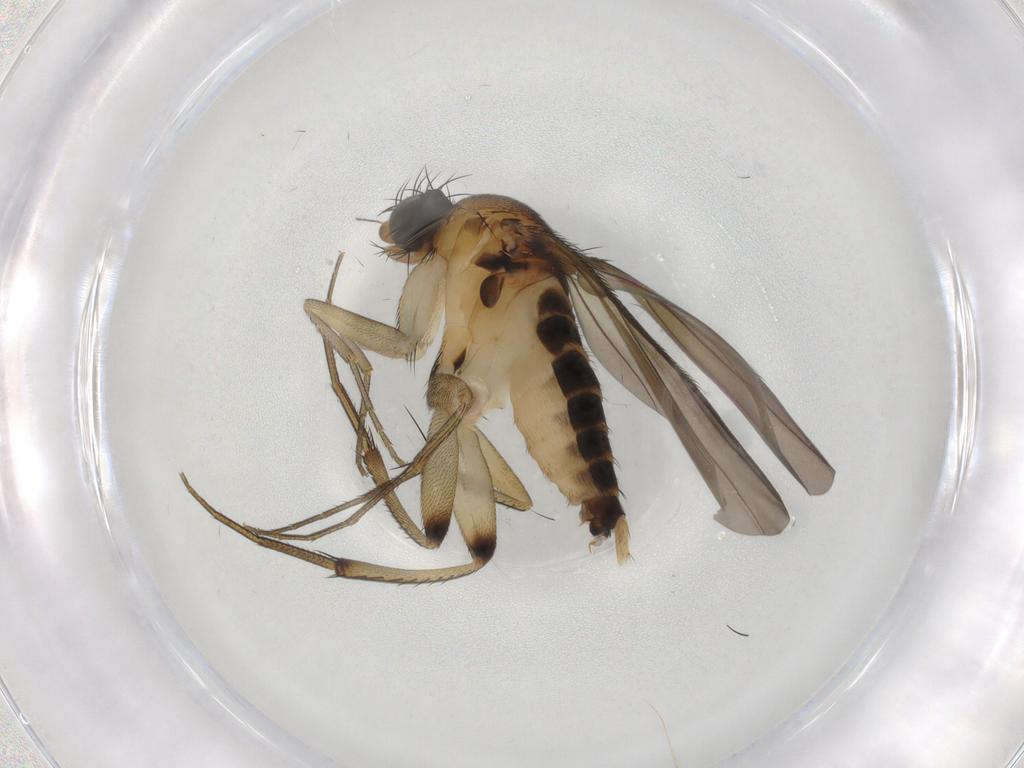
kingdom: Animalia
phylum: Arthropoda
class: Insecta
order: Diptera
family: Phoridae
